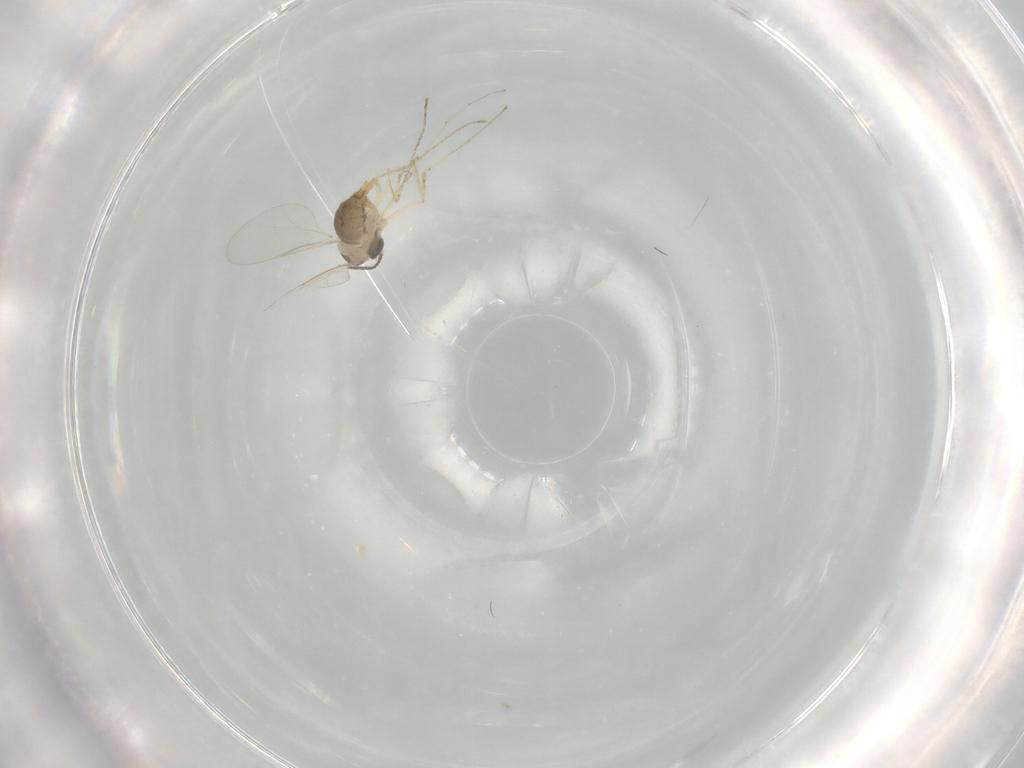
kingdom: Animalia
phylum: Arthropoda
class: Insecta
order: Diptera
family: Cecidomyiidae
